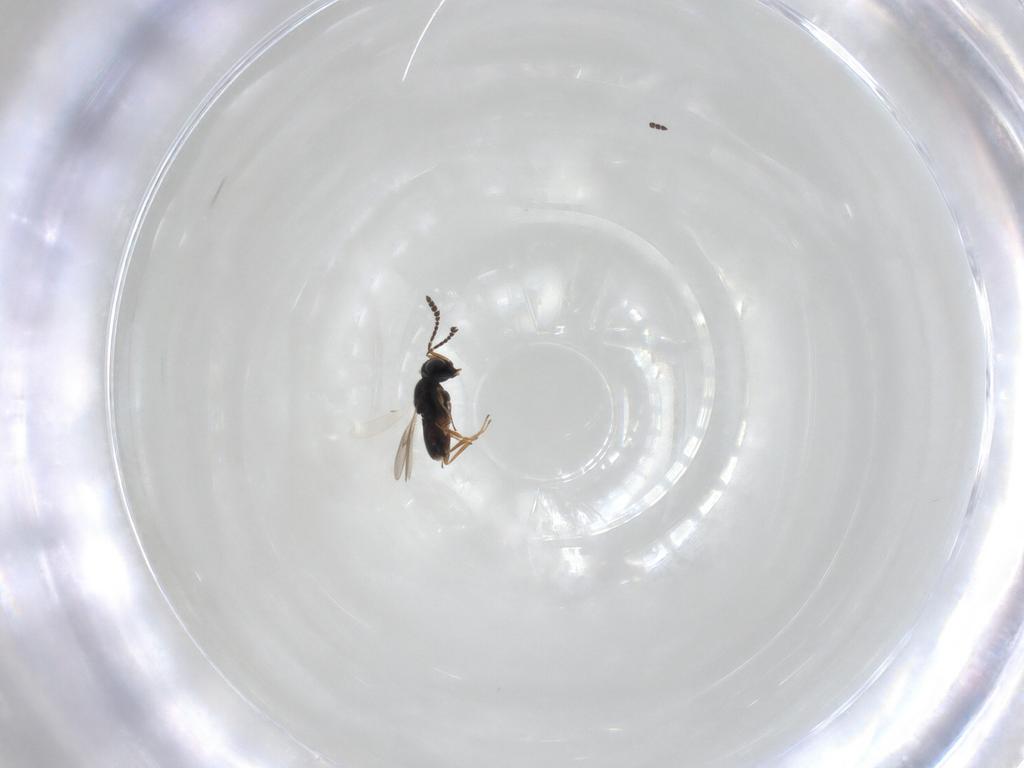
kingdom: Animalia
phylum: Arthropoda
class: Insecta
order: Hymenoptera
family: Scelionidae
